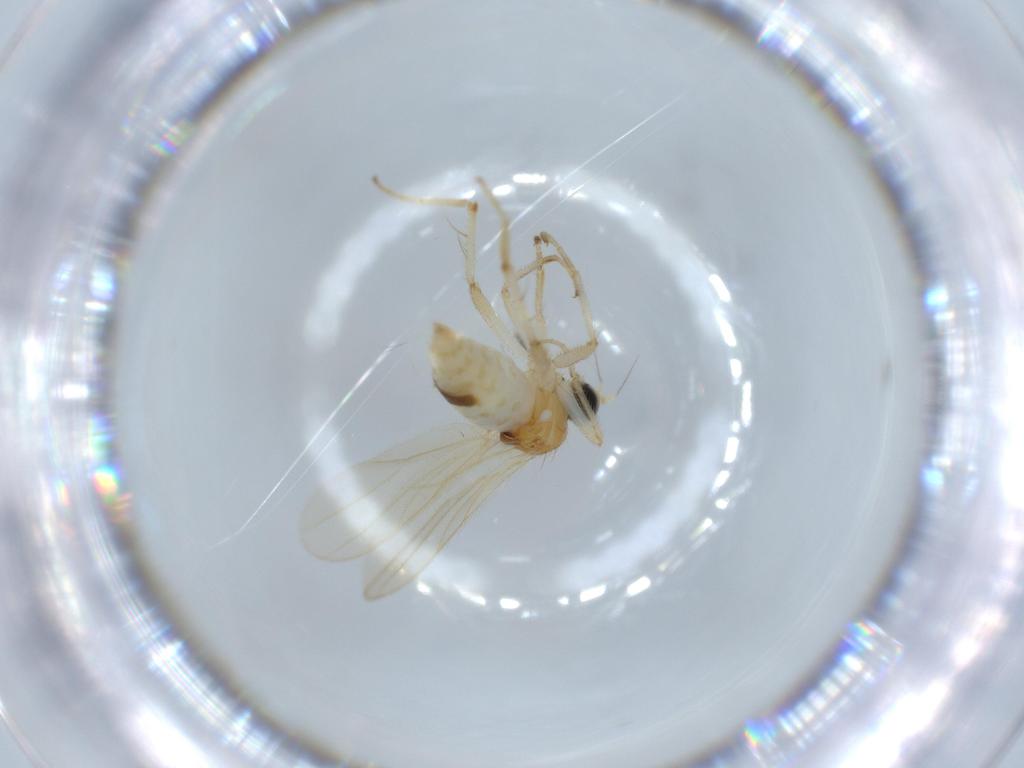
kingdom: Animalia
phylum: Arthropoda
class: Insecta
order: Diptera
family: Hybotidae
